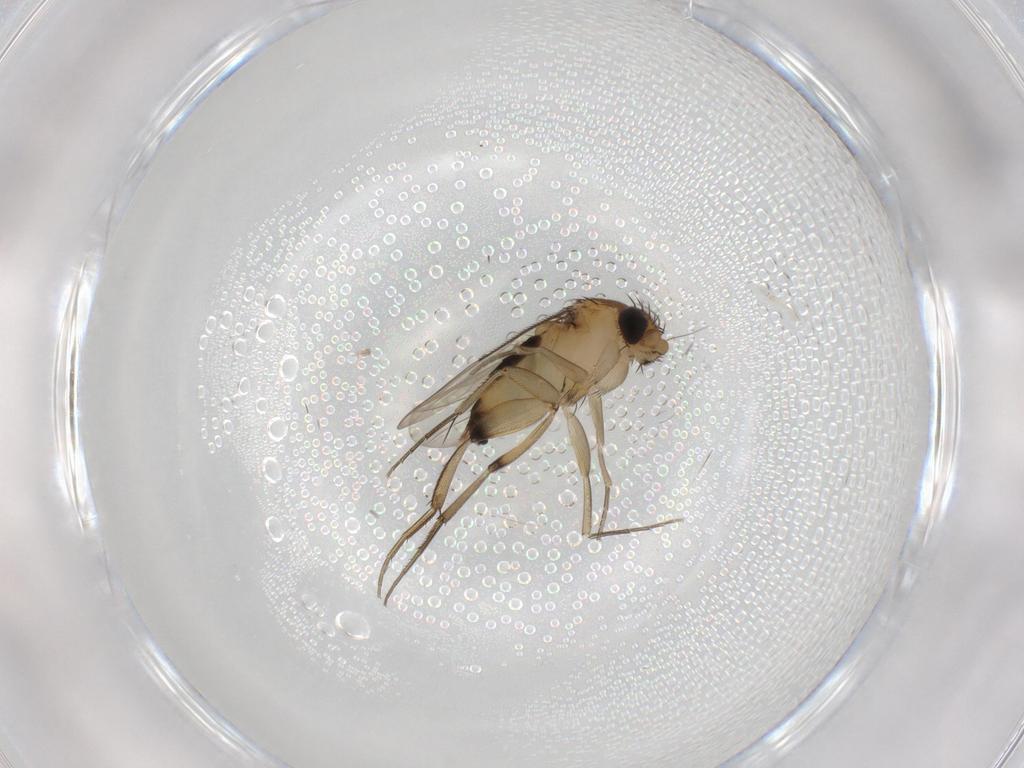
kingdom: Animalia
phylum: Arthropoda
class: Insecta
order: Diptera
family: Phoridae
